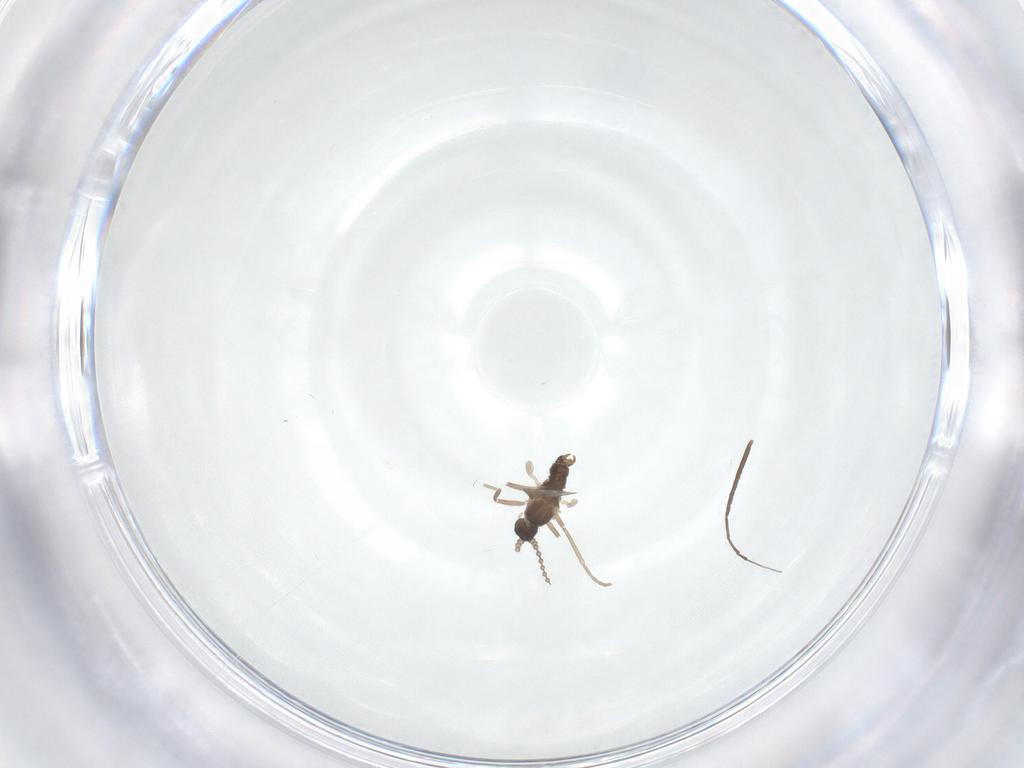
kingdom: Animalia
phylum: Arthropoda
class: Insecta
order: Diptera
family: Cecidomyiidae
